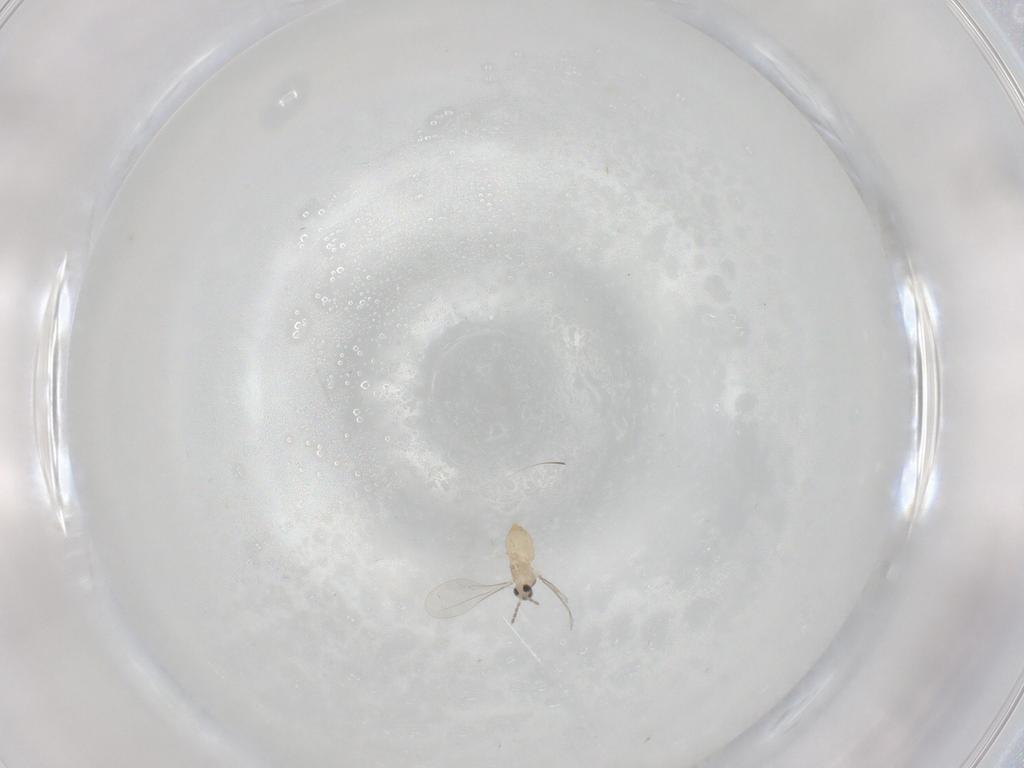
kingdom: Animalia
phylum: Arthropoda
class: Insecta
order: Diptera
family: Cecidomyiidae
